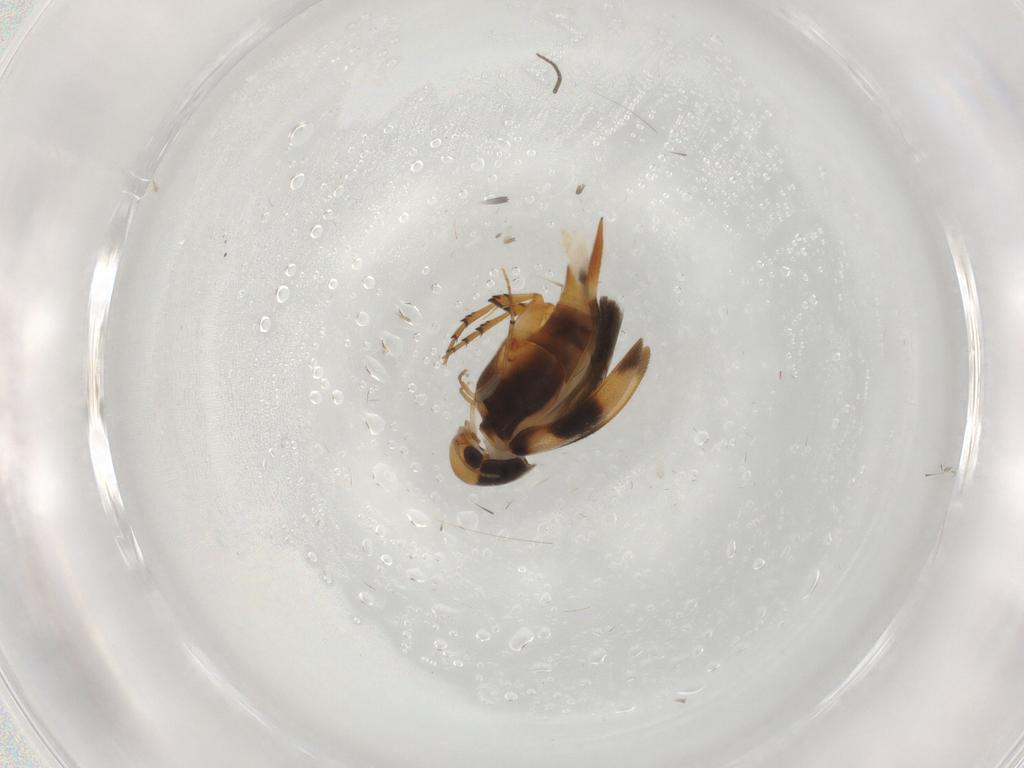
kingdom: Animalia
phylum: Arthropoda
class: Insecta
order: Coleoptera
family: Mordellidae
